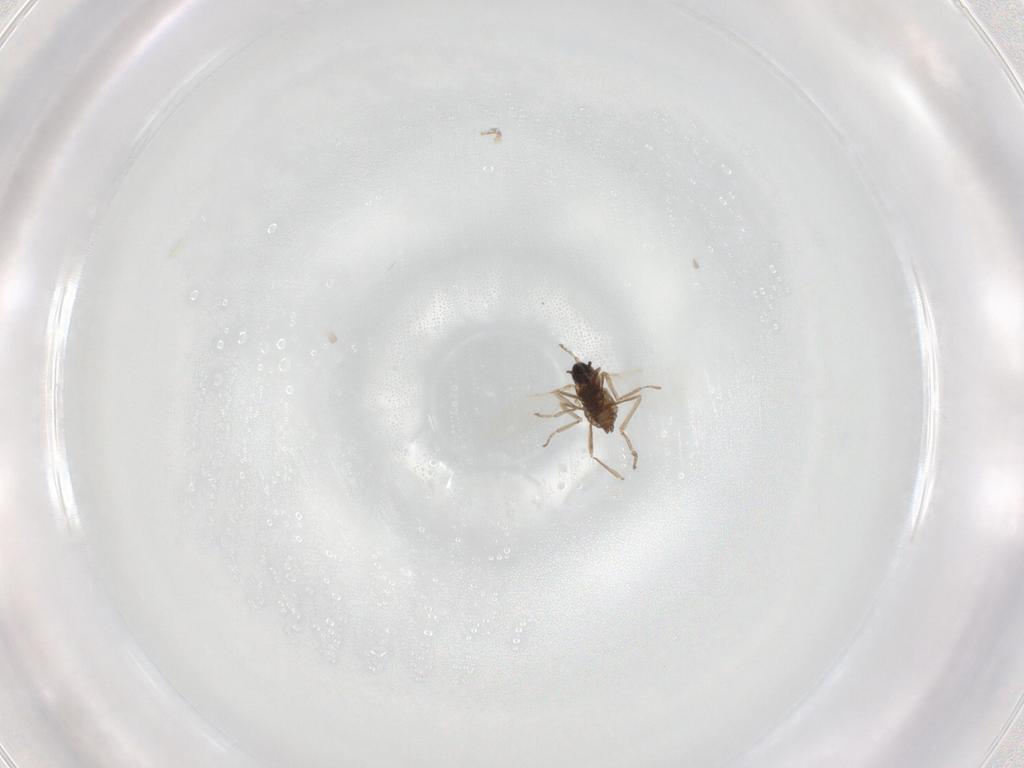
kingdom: Animalia
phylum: Arthropoda
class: Insecta
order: Diptera
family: Cecidomyiidae
